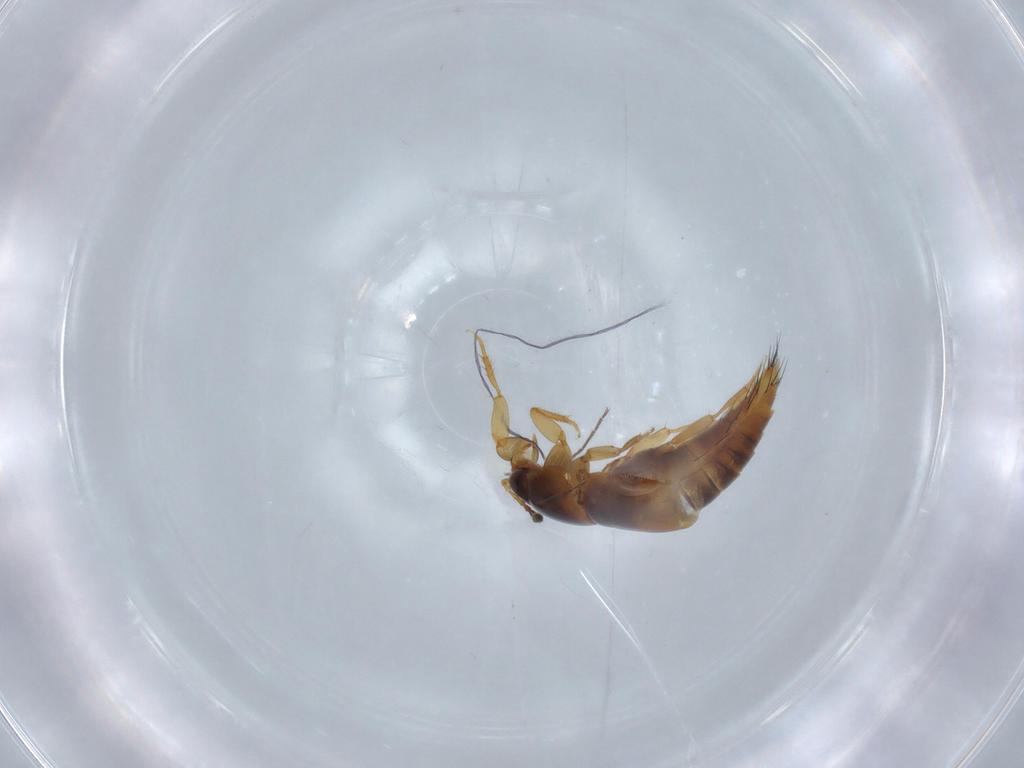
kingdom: Animalia
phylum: Arthropoda
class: Insecta
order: Coleoptera
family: Staphylinidae
